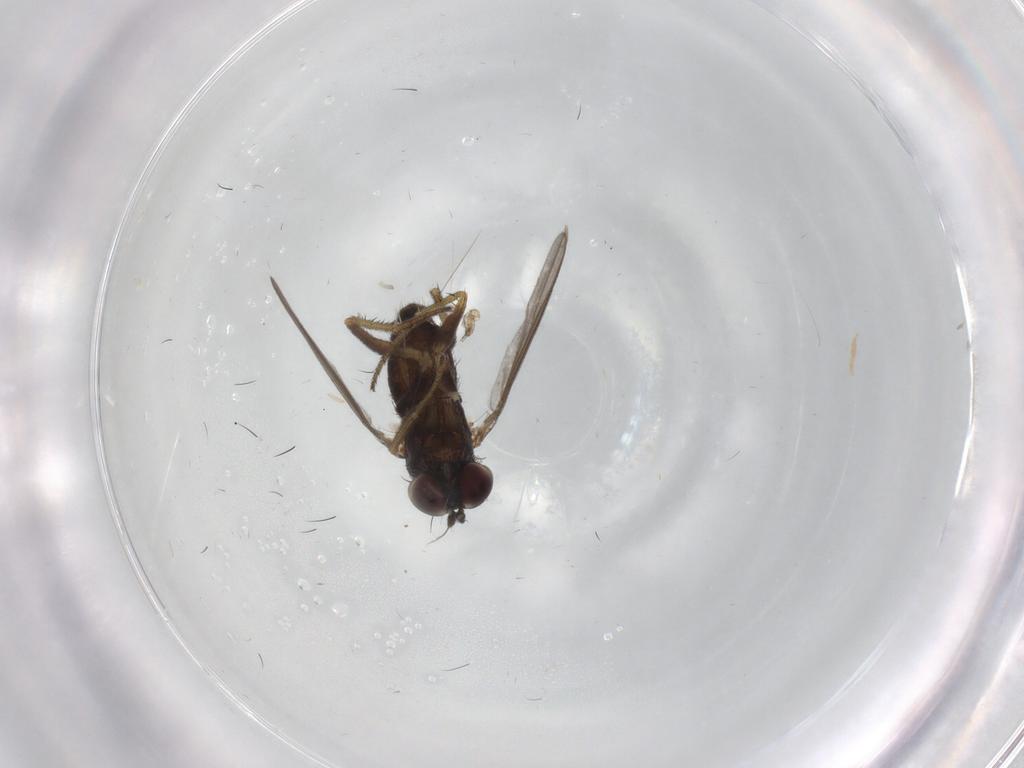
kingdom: Animalia
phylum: Arthropoda
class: Insecta
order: Diptera
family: Dolichopodidae
